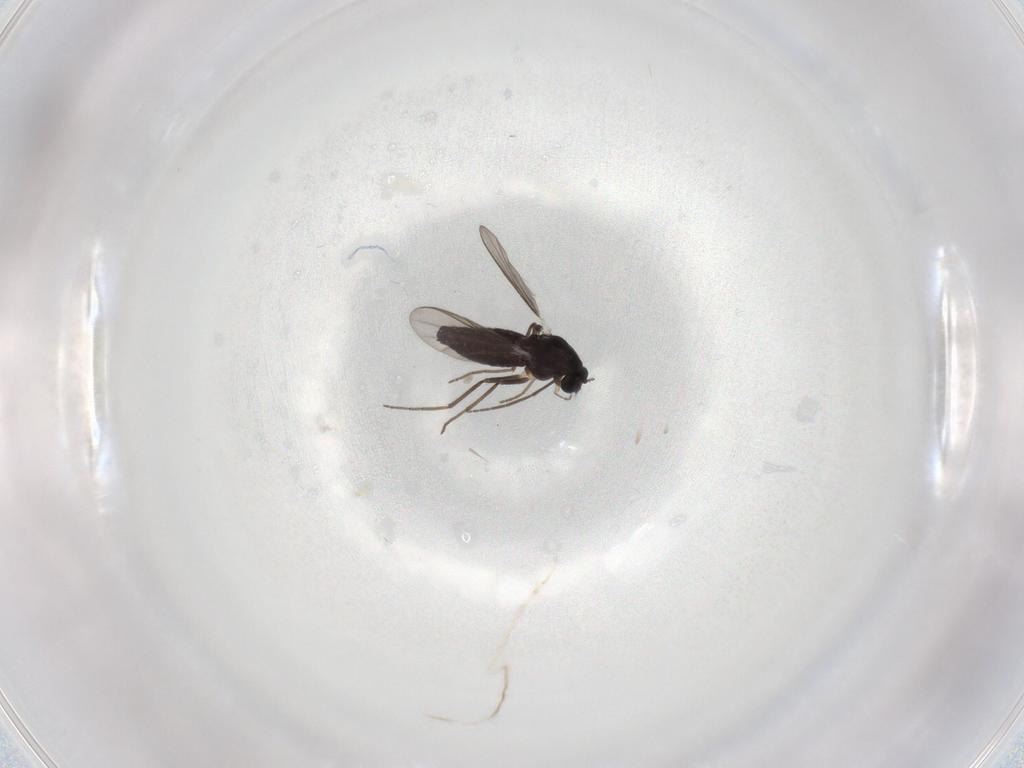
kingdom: Animalia
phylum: Arthropoda
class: Insecta
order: Diptera
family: Chironomidae
